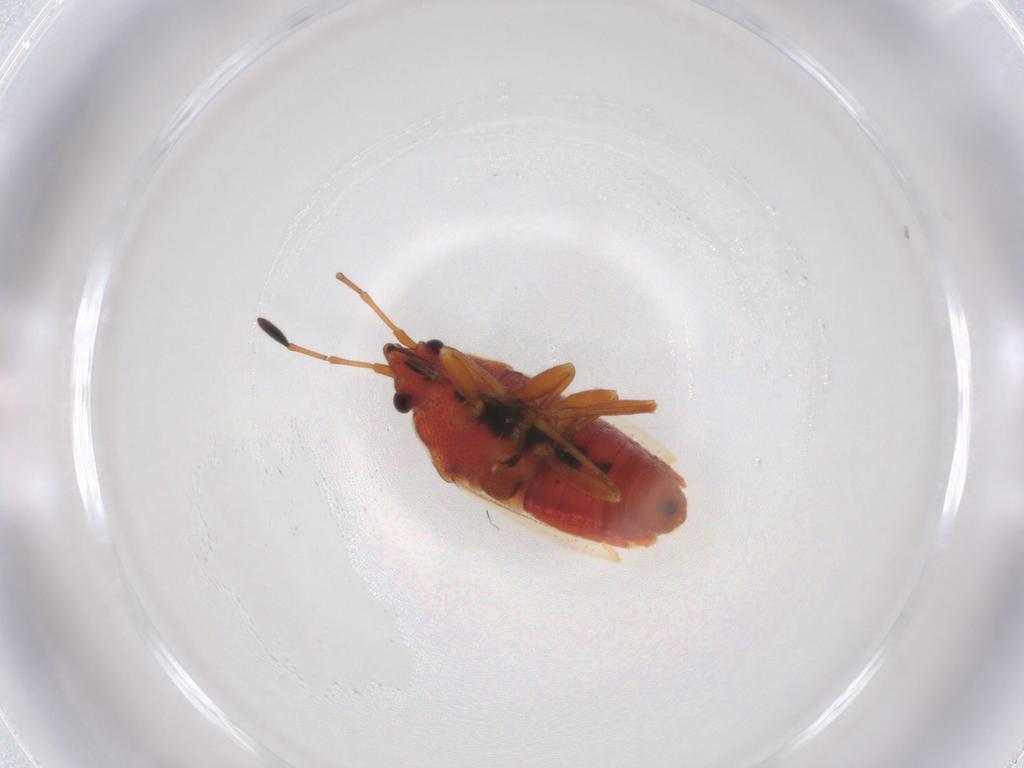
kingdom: Animalia
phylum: Arthropoda
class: Insecta
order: Hemiptera
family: Lygaeidae
